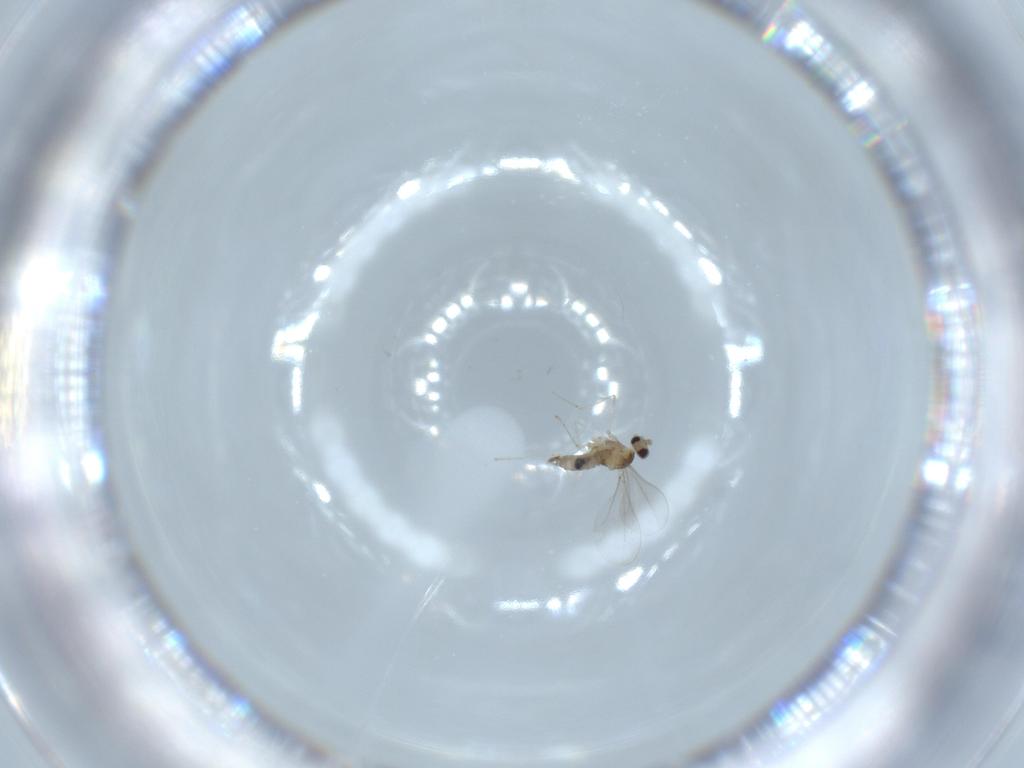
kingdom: Animalia
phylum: Arthropoda
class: Insecta
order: Diptera
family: Cecidomyiidae
